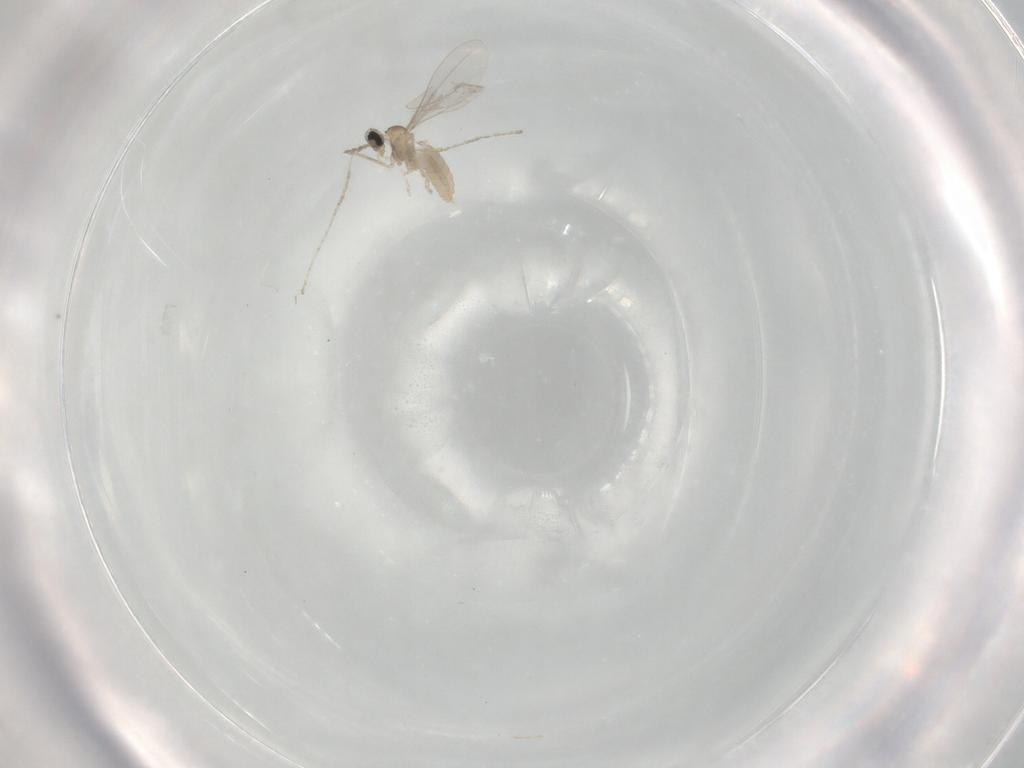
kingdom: Animalia
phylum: Arthropoda
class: Insecta
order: Diptera
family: Cecidomyiidae
